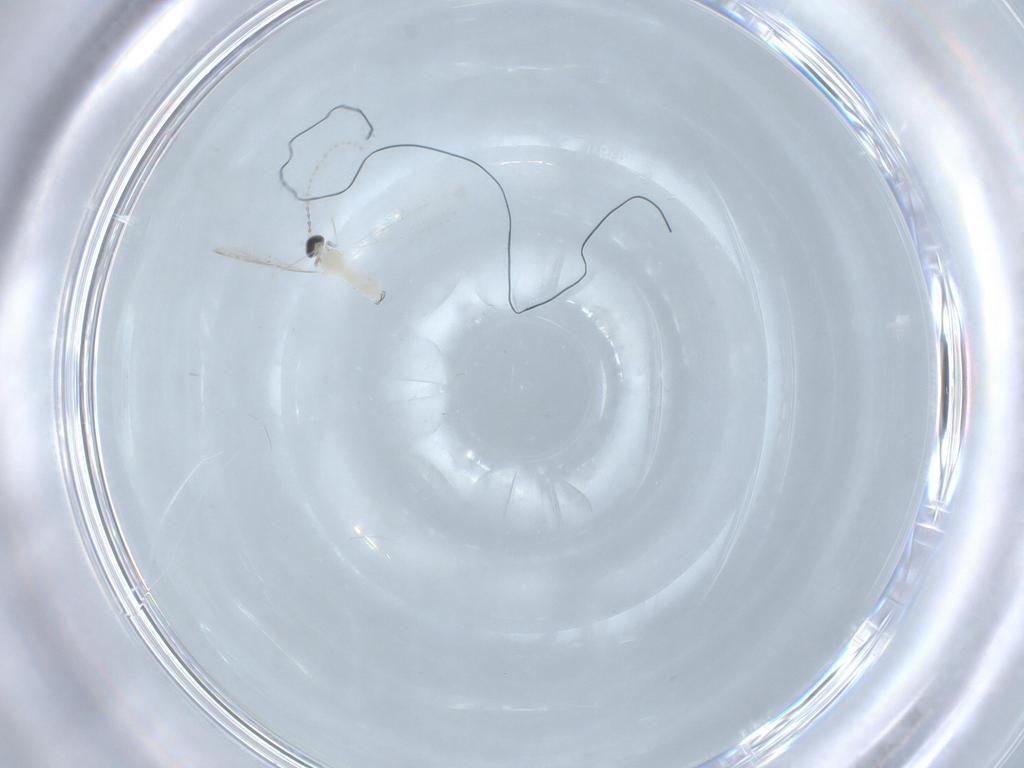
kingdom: Animalia
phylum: Arthropoda
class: Insecta
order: Diptera
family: Cecidomyiidae
